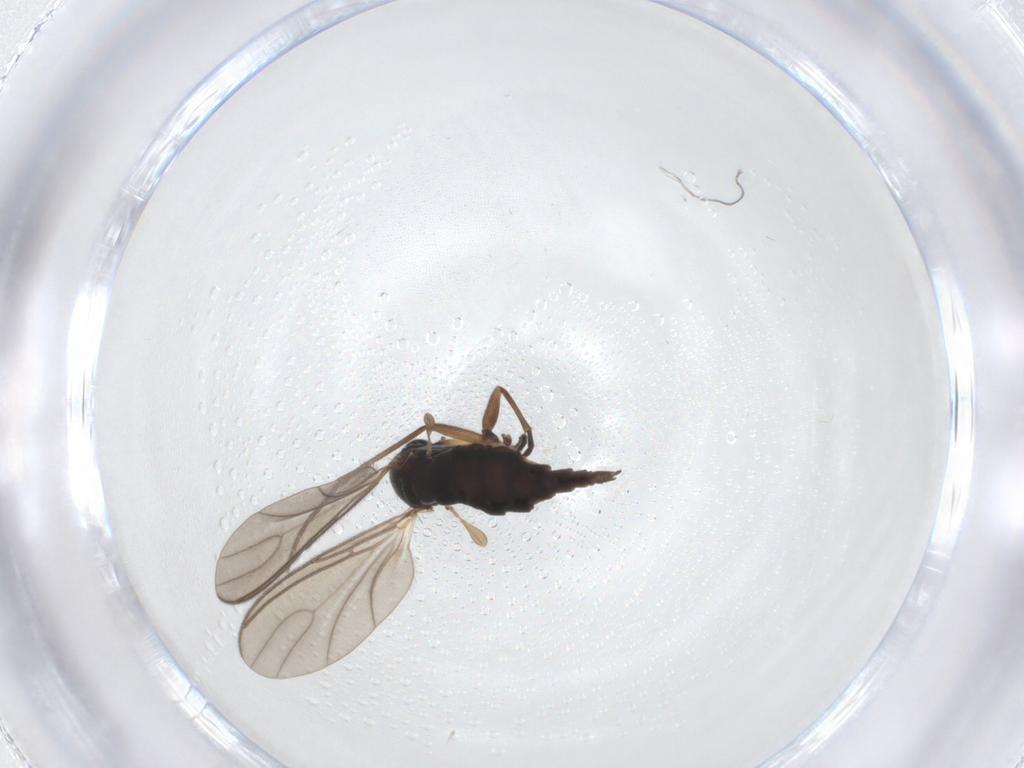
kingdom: Animalia
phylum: Arthropoda
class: Insecta
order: Diptera
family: Sciaridae
